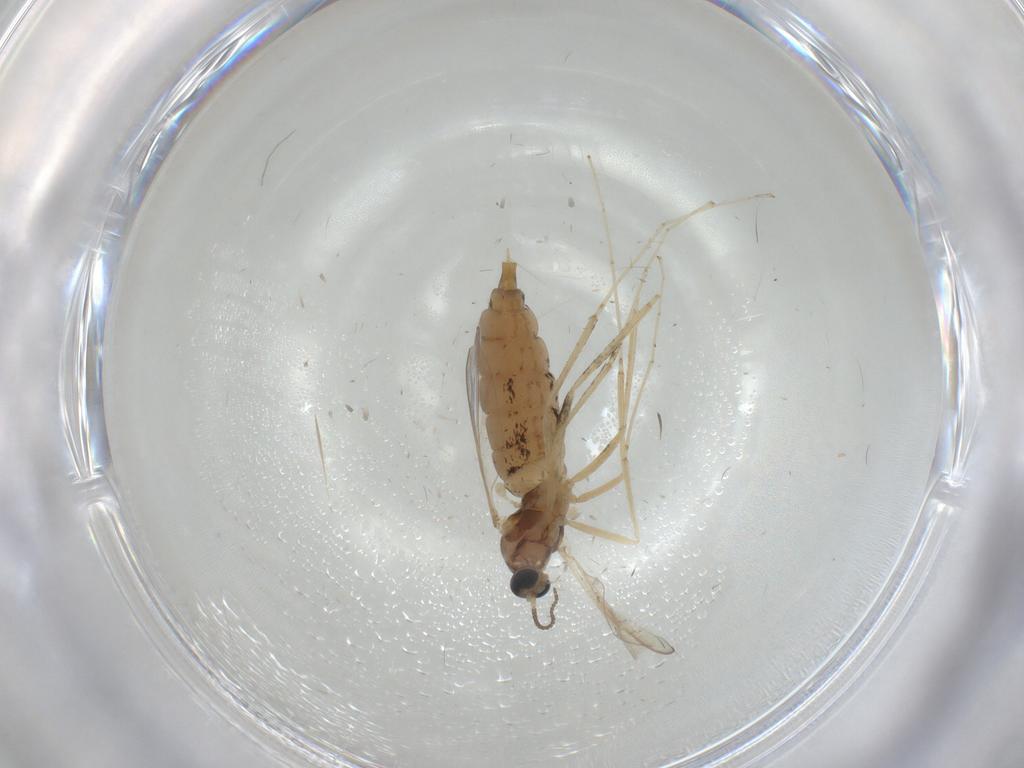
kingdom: Animalia
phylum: Arthropoda
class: Insecta
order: Diptera
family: Cecidomyiidae
